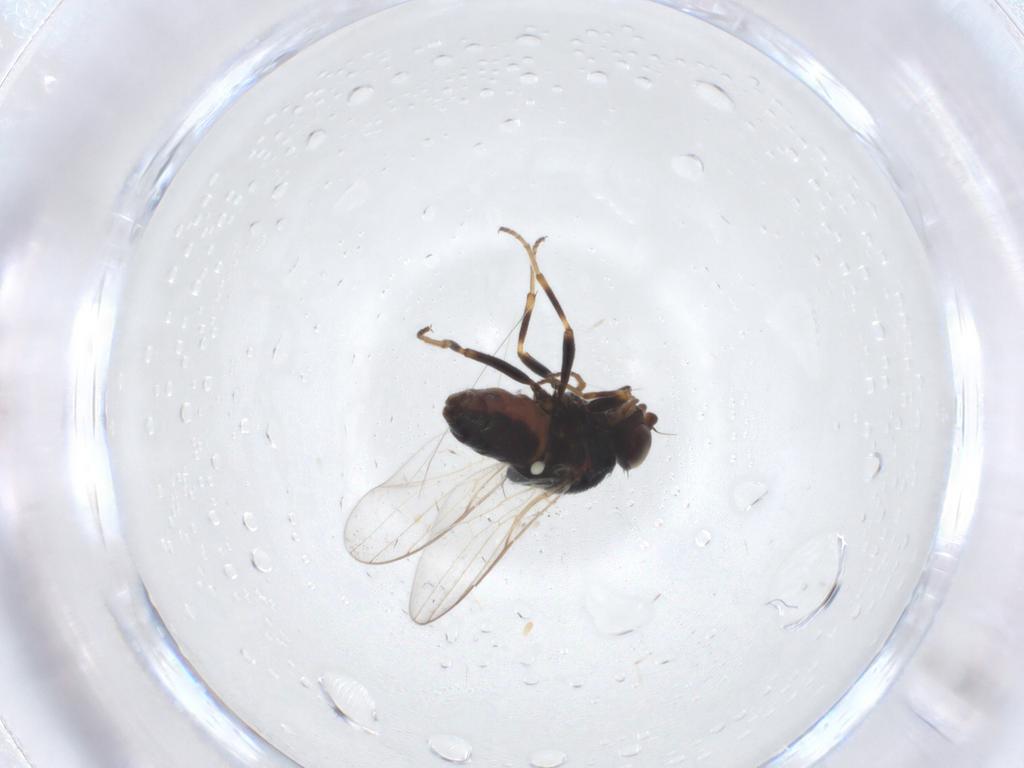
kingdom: Animalia
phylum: Arthropoda
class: Insecta
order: Diptera
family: Chloropidae
